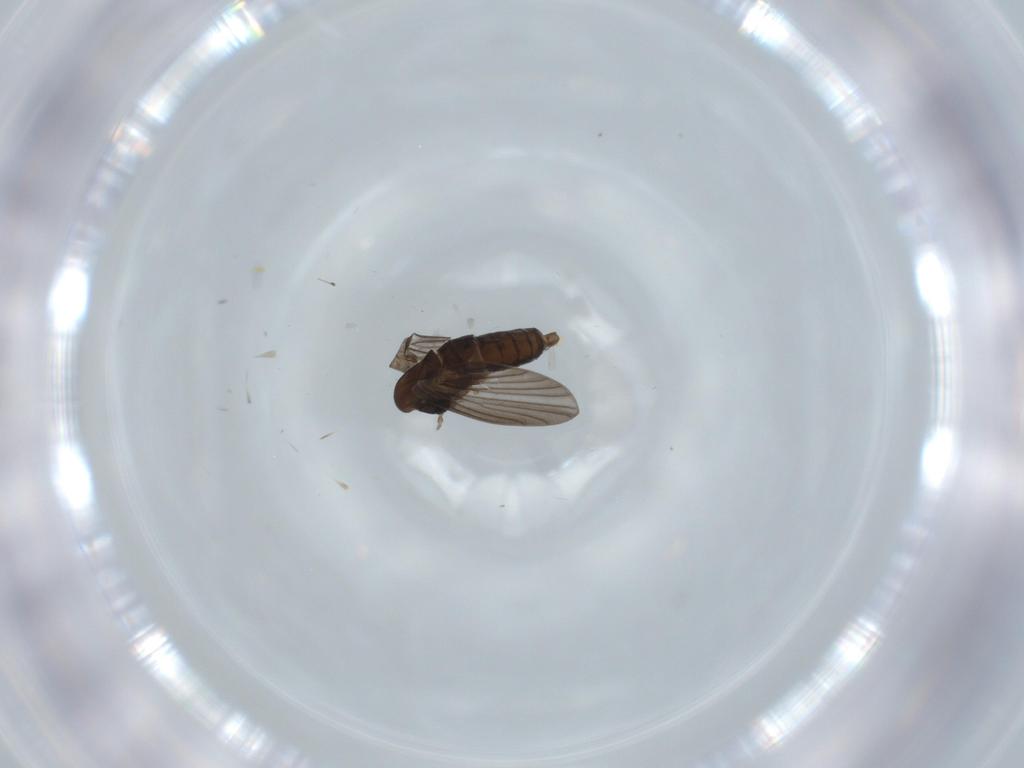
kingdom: Animalia
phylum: Arthropoda
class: Insecta
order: Diptera
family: Milichiidae
